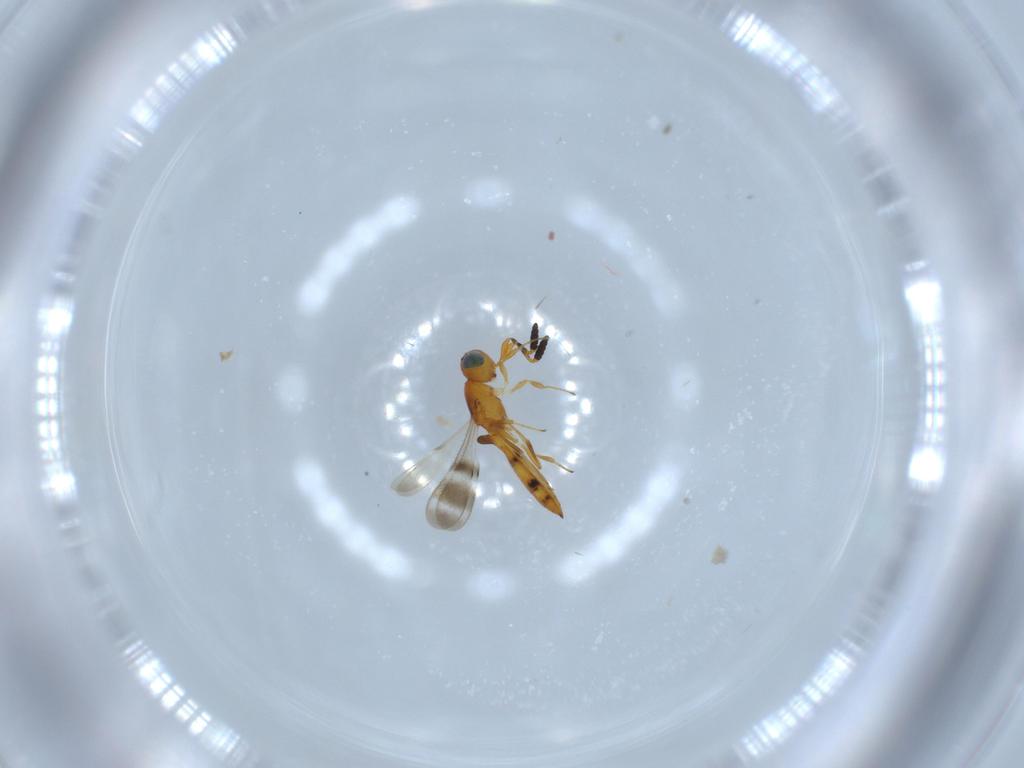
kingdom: Animalia
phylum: Arthropoda
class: Insecta
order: Hymenoptera
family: Scelionidae
